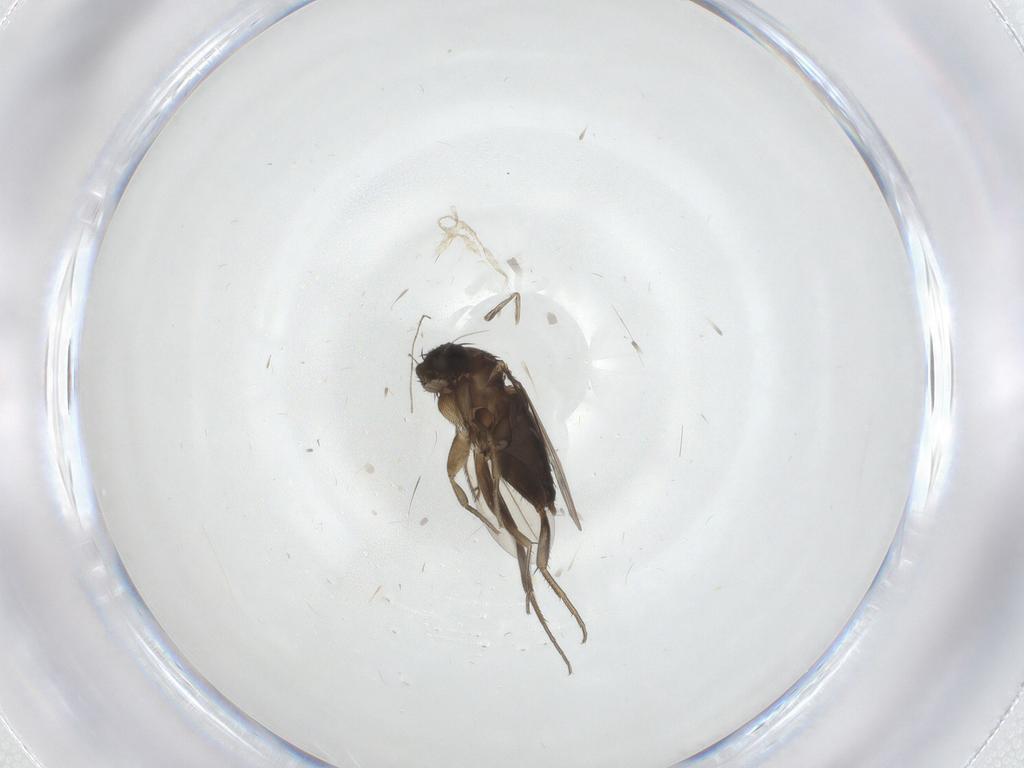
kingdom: Animalia
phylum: Arthropoda
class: Insecta
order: Diptera
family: Phoridae
